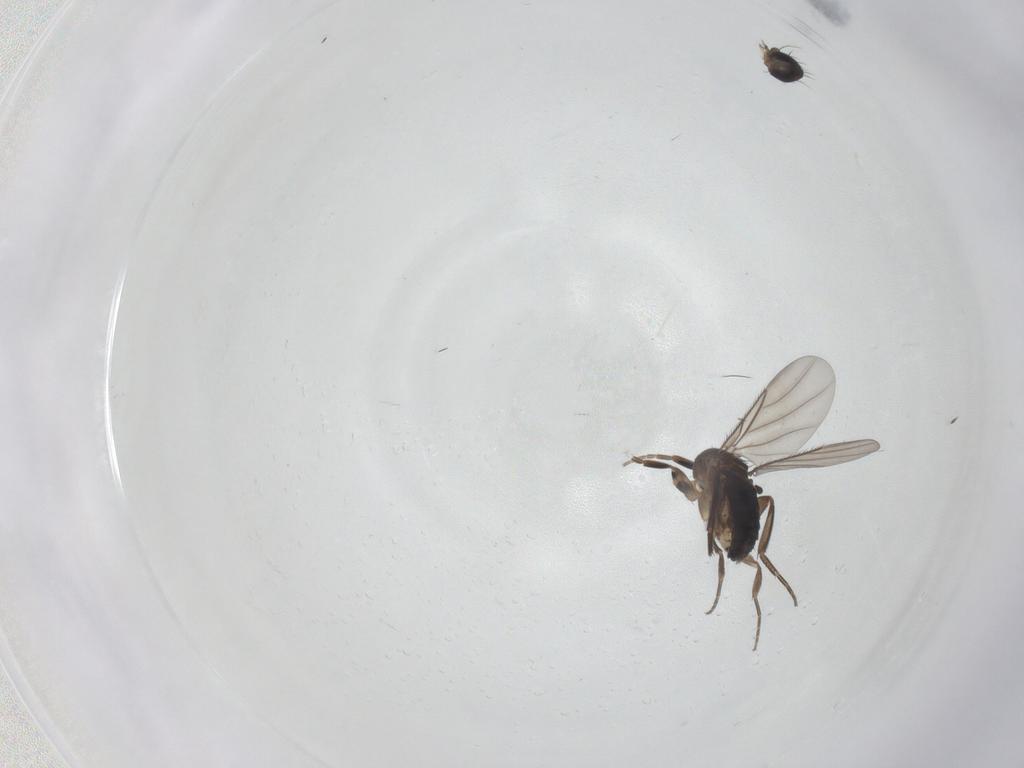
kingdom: Animalia
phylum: Arthropoda
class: Insecta
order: Diptera
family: Phoridae
